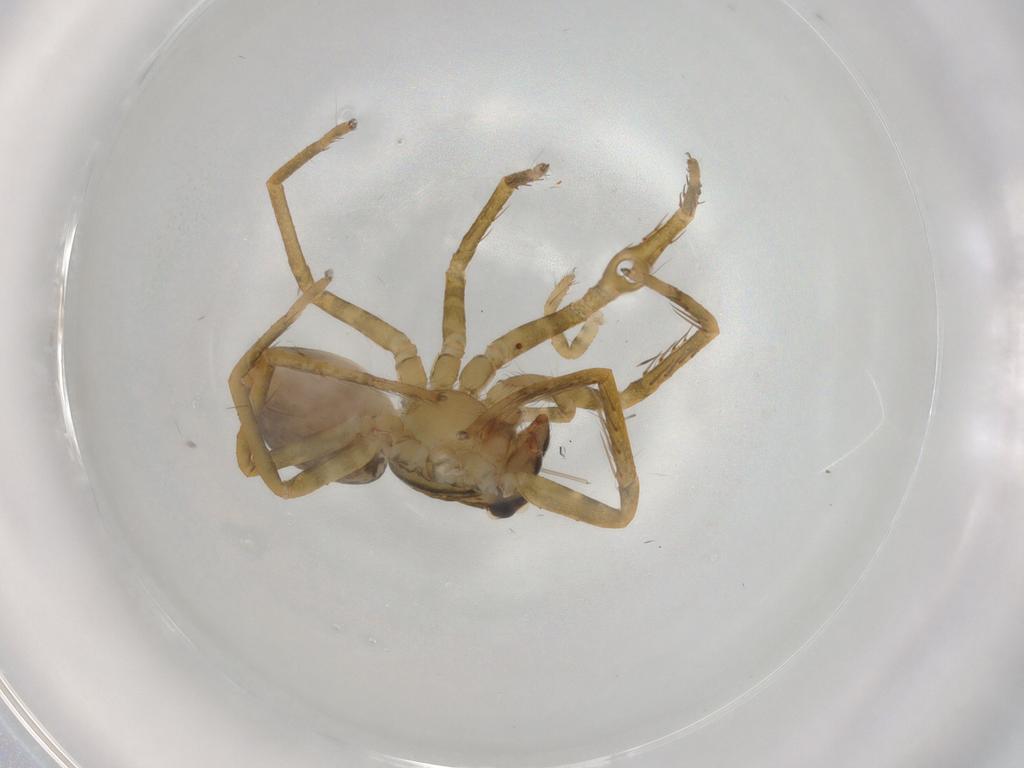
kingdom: Animalia
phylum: Arthropoda
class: Arachnida
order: Araneae
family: Ctenidae
